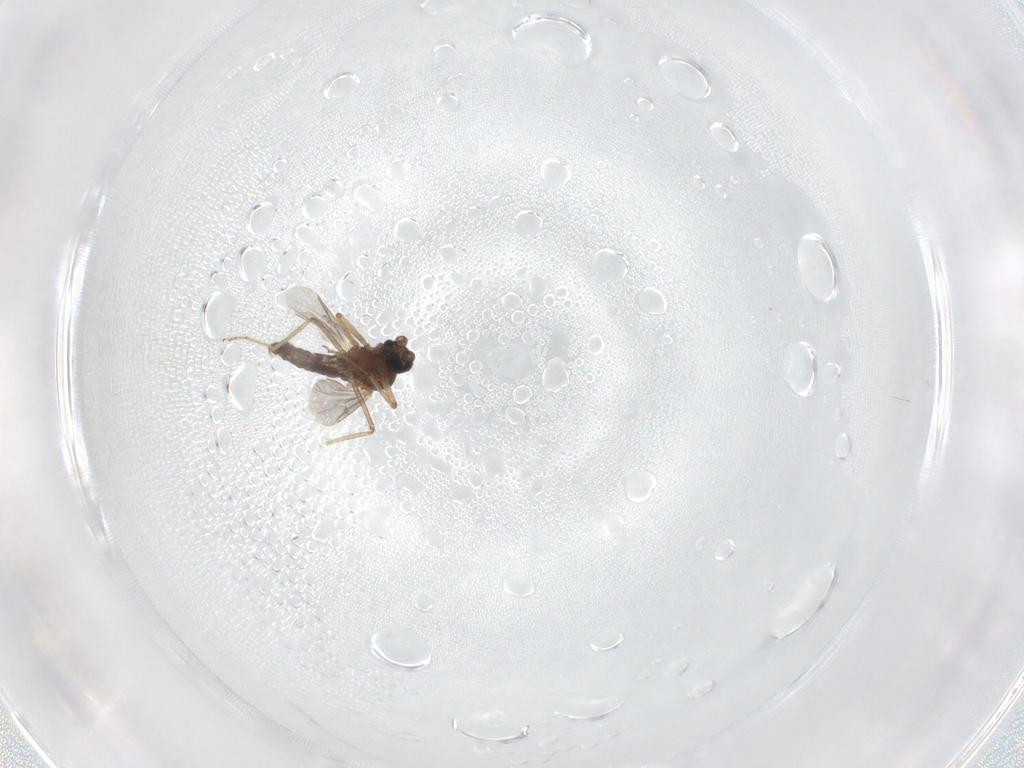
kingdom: Animalia
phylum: Arthropoda
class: Insecta
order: Diptera
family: Ceratopogonidae
